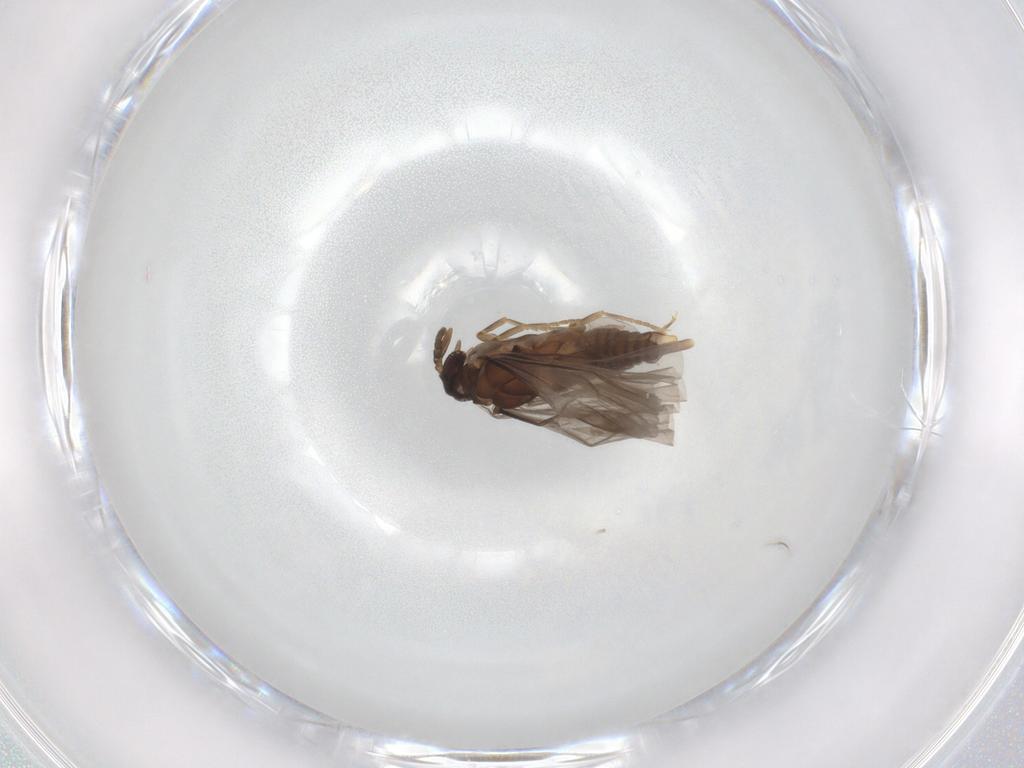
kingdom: Animalia
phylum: Arthropoda
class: Insecta
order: Strepsiptera
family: Mengenillidae
